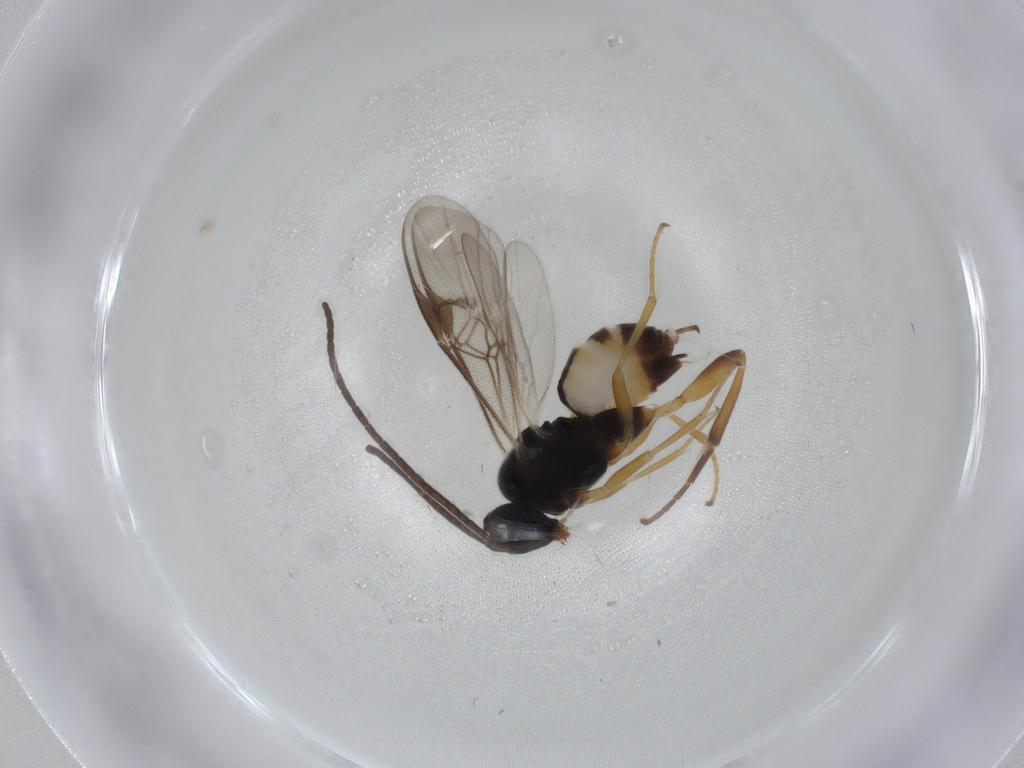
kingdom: Animalia
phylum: Arthropoda
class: Insecta
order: Hymenoptera
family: Braconidae
